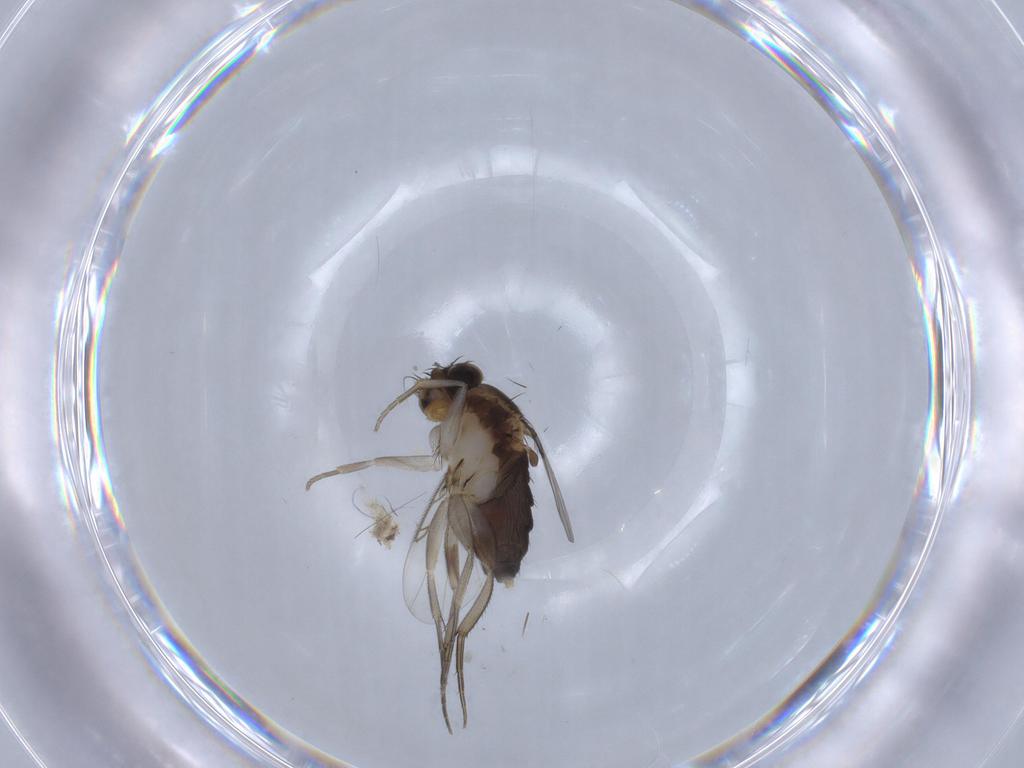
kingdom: Animalia
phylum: Arthropoda
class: Insecta
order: Diptera
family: Phoridae
